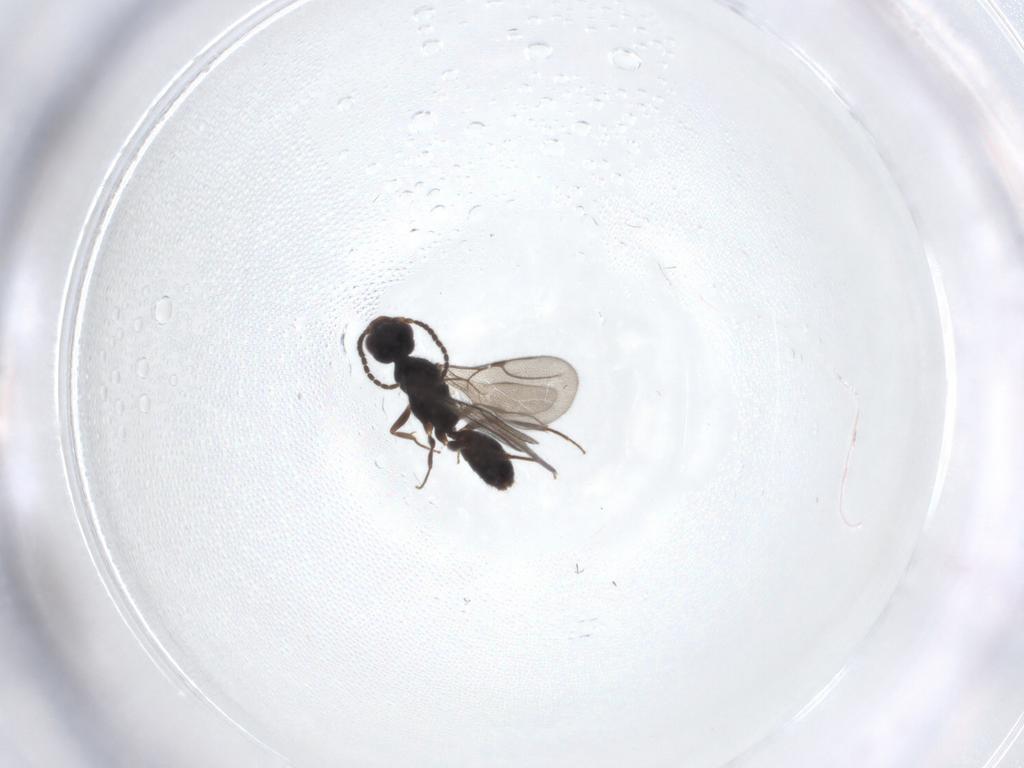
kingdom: Animalia
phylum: Arthropoda
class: Insecta
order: Hymenoptera
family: Bethylidae
